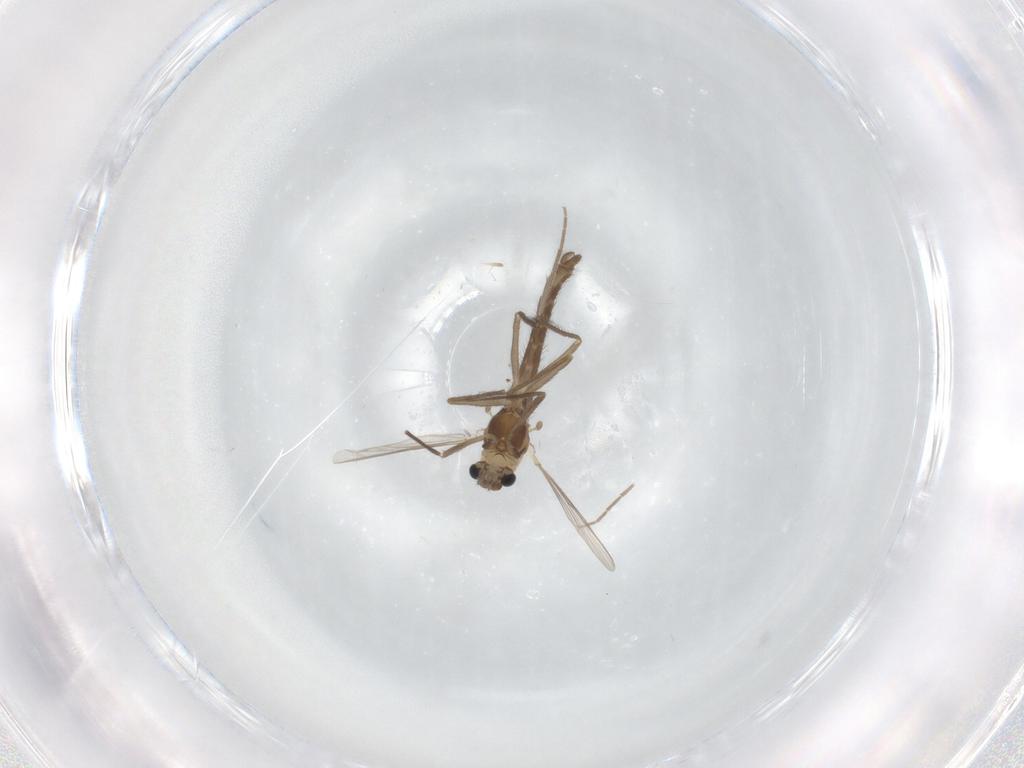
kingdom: Animalia
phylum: Arthropoda
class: Insecta
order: Diptera
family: Chironomidae
